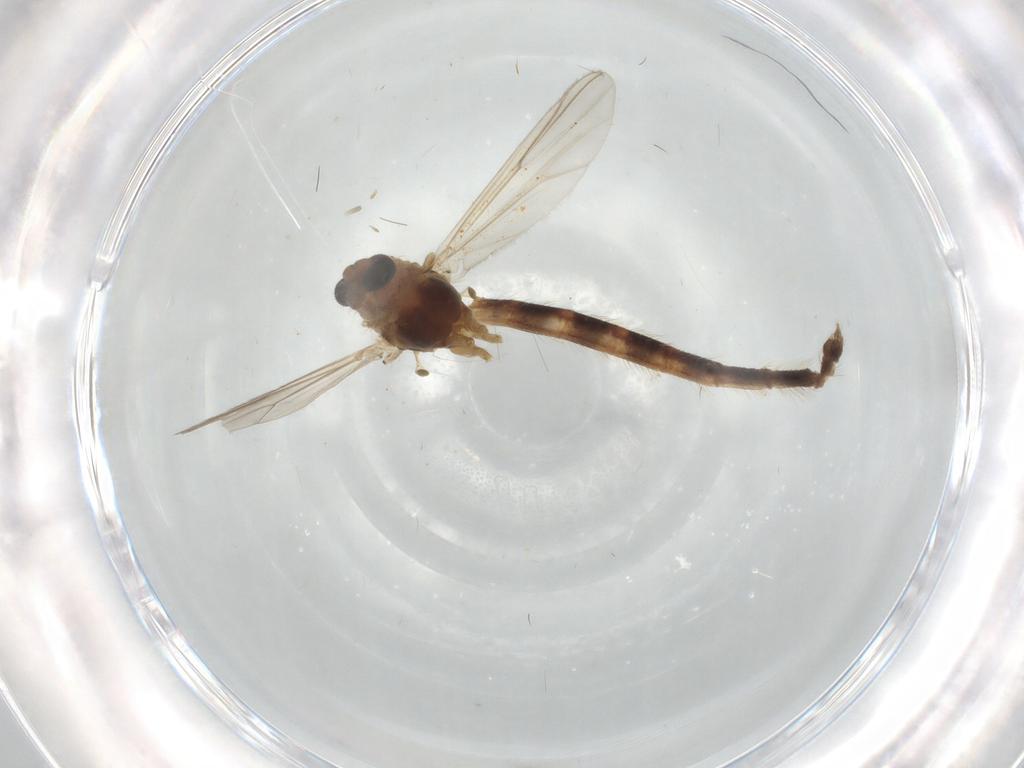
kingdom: Animalia
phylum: Arthropoda
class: Insecta
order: Diptera
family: Chironomidae
